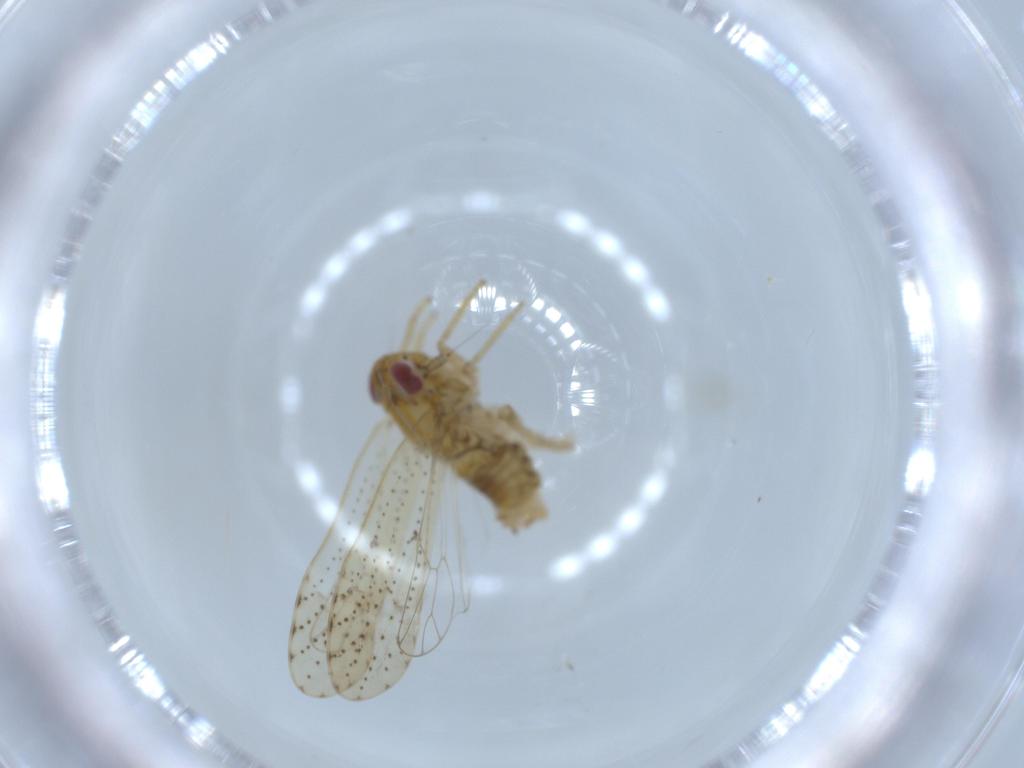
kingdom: Animalia
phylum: Arthropoda
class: Insecta
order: Hemiptera
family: Delphacidae
